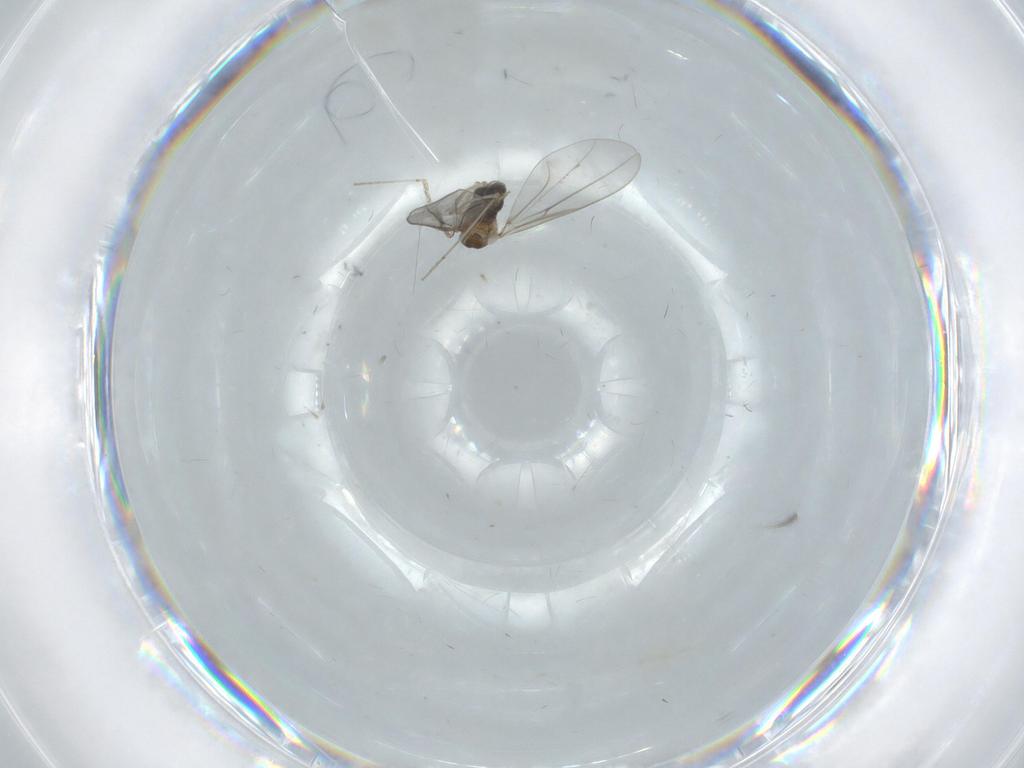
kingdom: Animalia
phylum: Arthropoda
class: Insecta
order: Diptera
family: Cecidomyiidae
